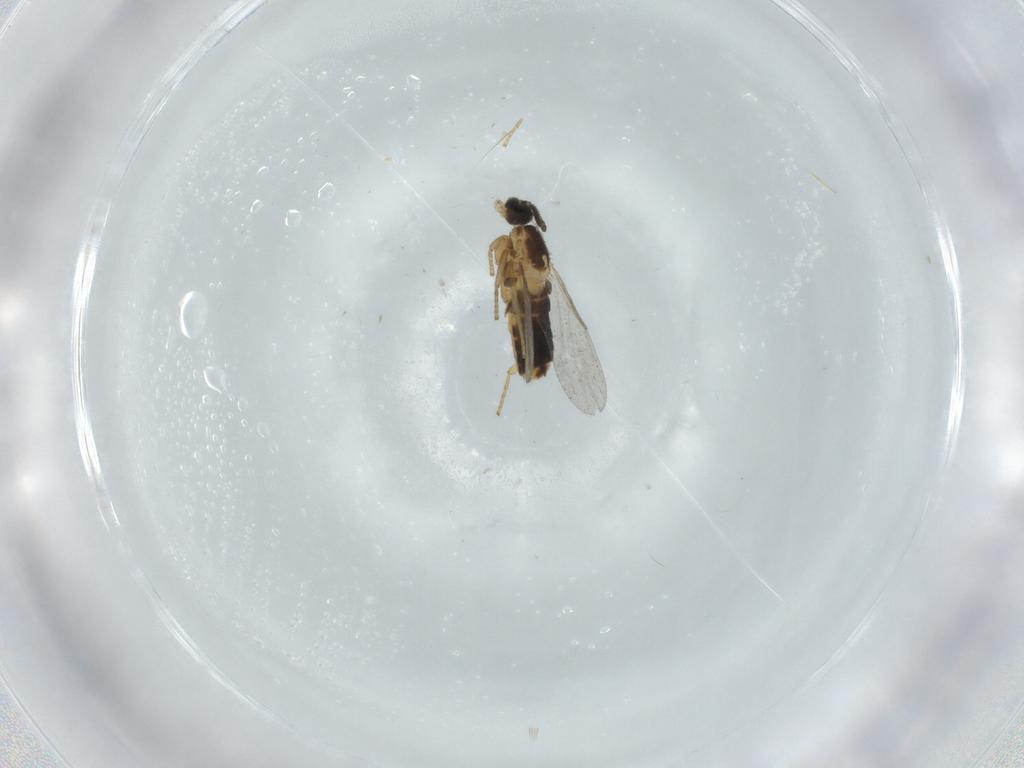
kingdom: Animalia
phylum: Arthropoda
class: Insecta
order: Diptera
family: Scatopsidae
